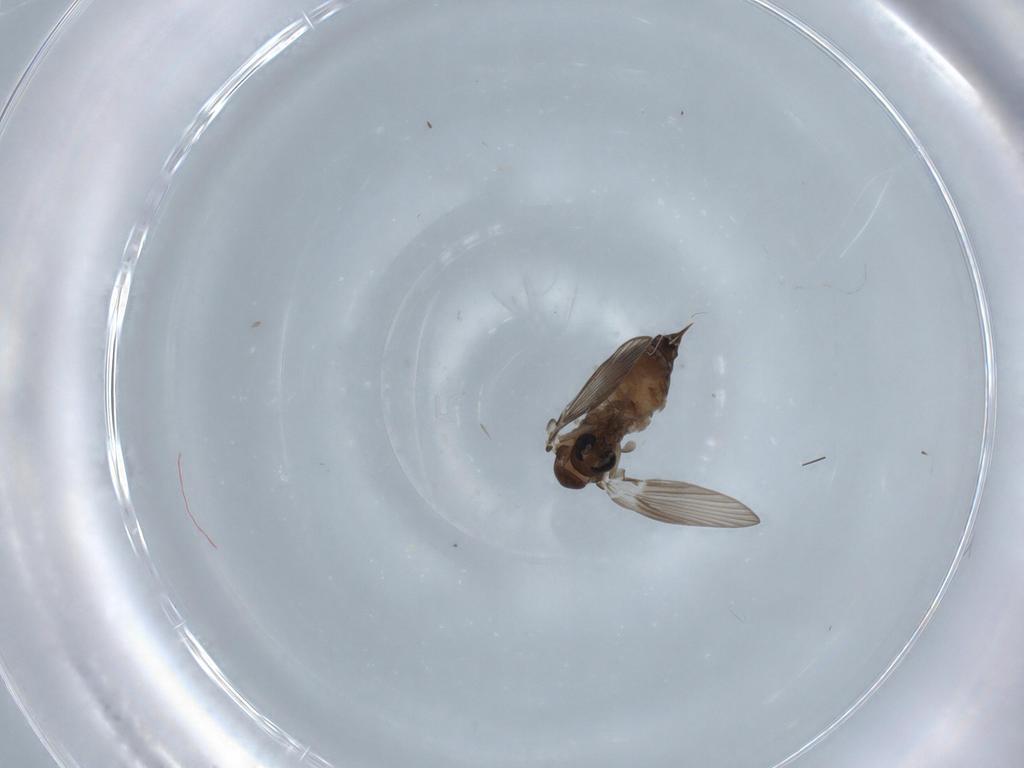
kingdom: Animalia
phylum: Arthropoda
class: Insecta
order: Diptera
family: Psychodidae
